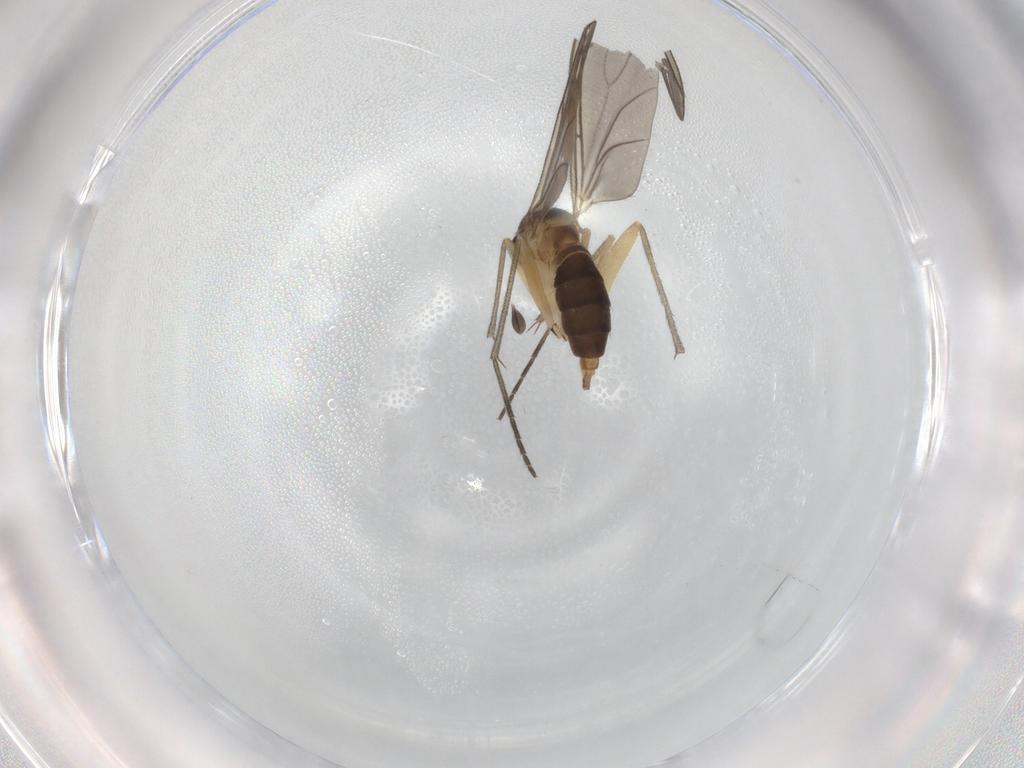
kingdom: Animalia
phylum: Arthropoda
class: Insecta
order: Diptera
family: Sciaridae
